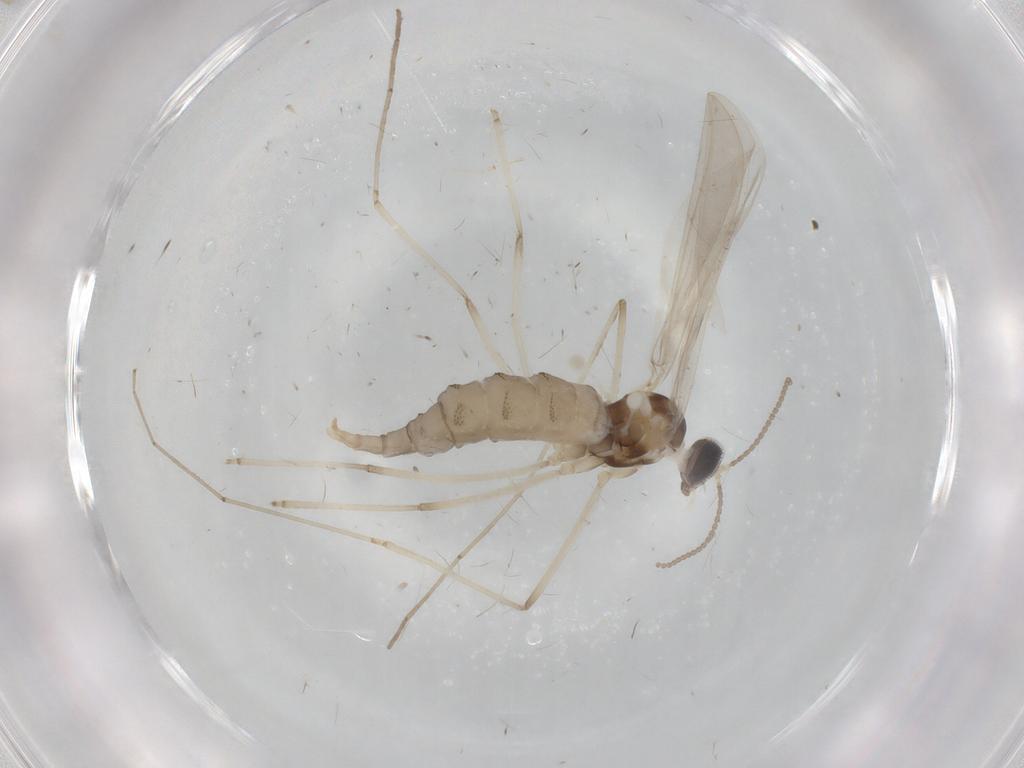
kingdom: Animalia
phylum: Arthropoda
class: Insecta
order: Diptera
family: Cecidomyiidae
